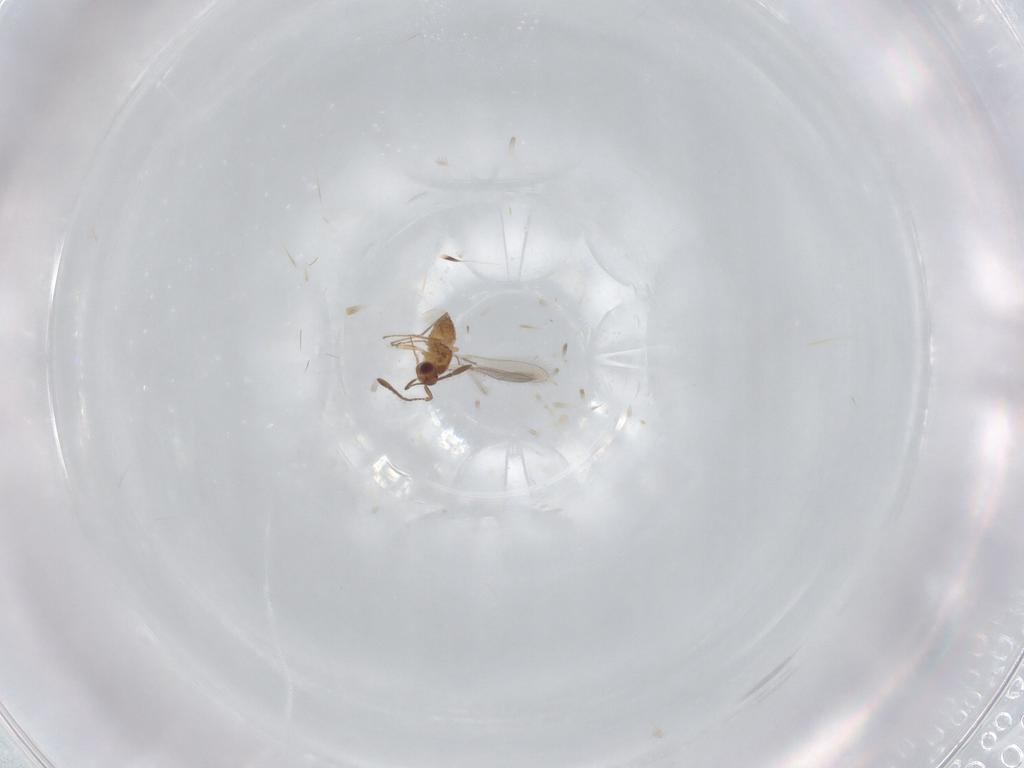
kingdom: Animalia
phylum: Arthropoda
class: Insecta
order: Hymenoptera
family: Mymaridae
